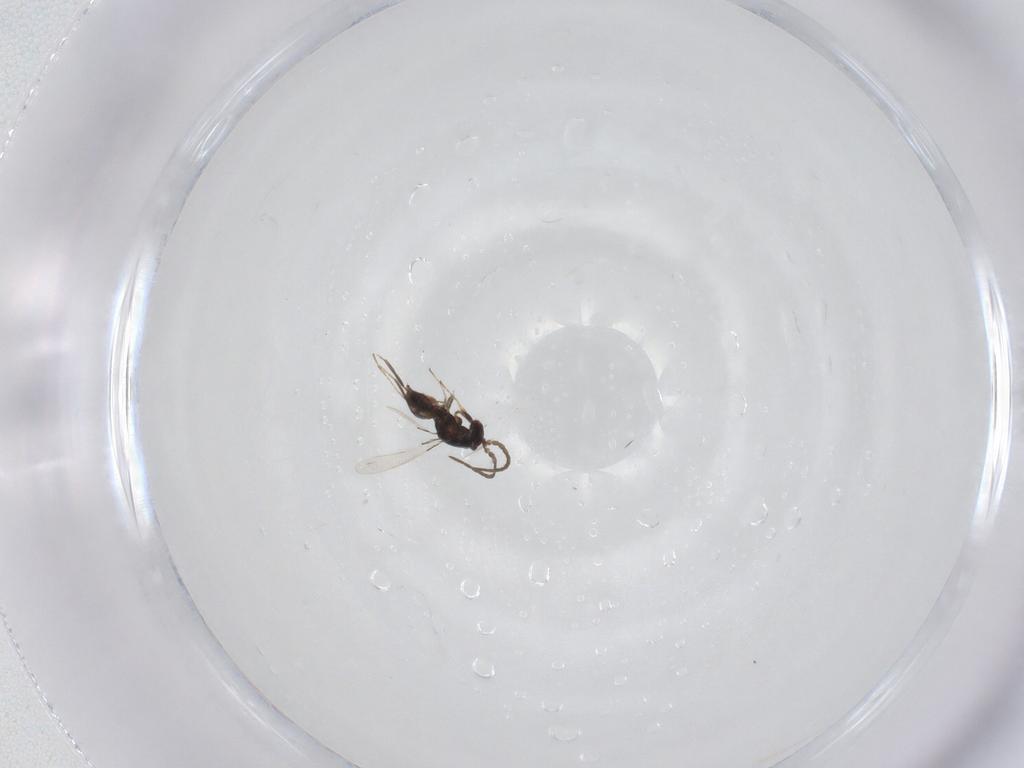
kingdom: Animalia
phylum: Arthropoda
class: Insecta
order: Hymenoptera
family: Mymaridae
